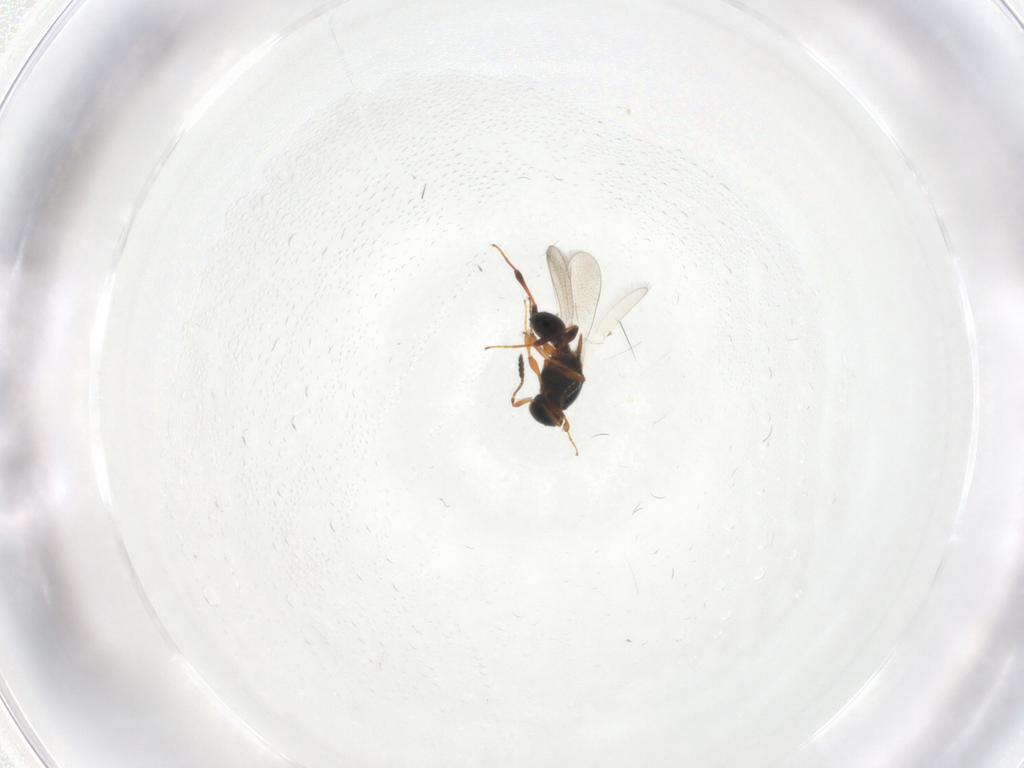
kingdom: Animalia
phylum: Arthropoda
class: Insecta
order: Hymenoptera
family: Platygastridae
